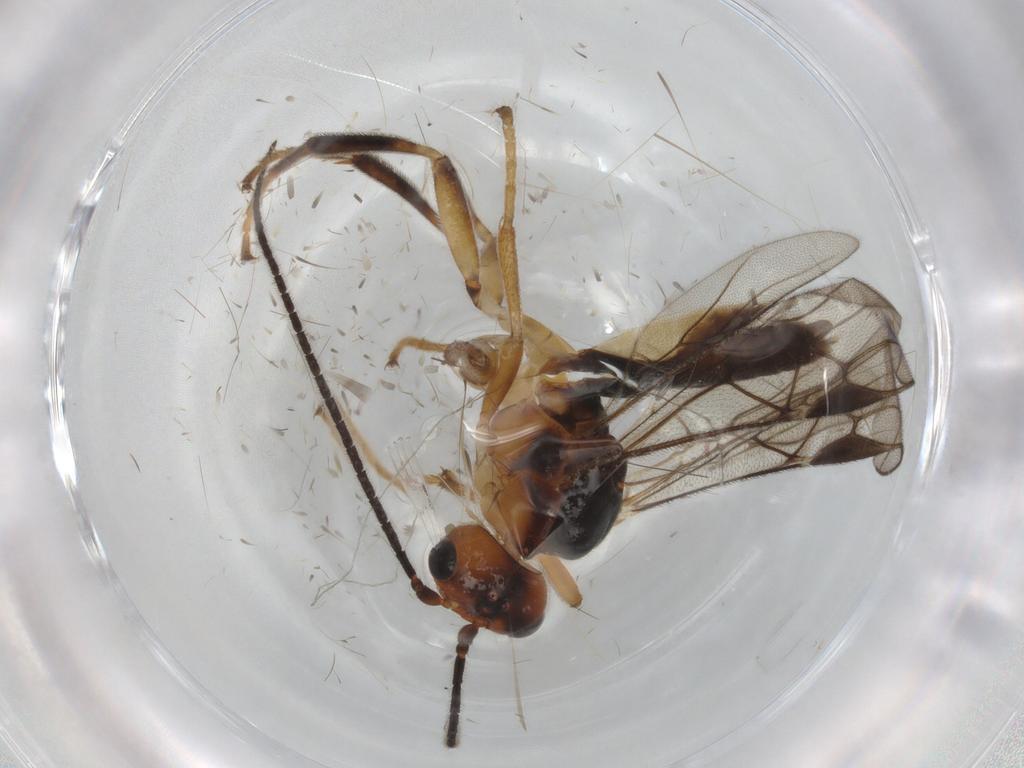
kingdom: Animalia
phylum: Arthropoda
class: Insecta
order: Hymenoptera
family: Braconidae
